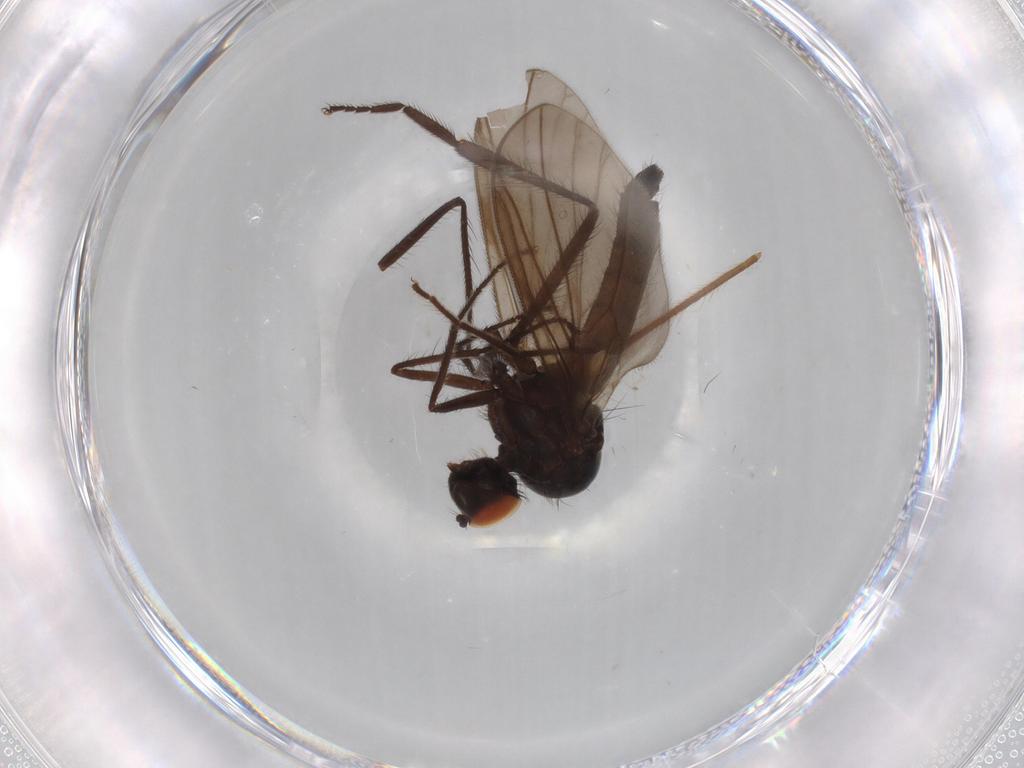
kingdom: Animalia
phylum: Arthropoda
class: Insecta
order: Diptera
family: Hybotidae
